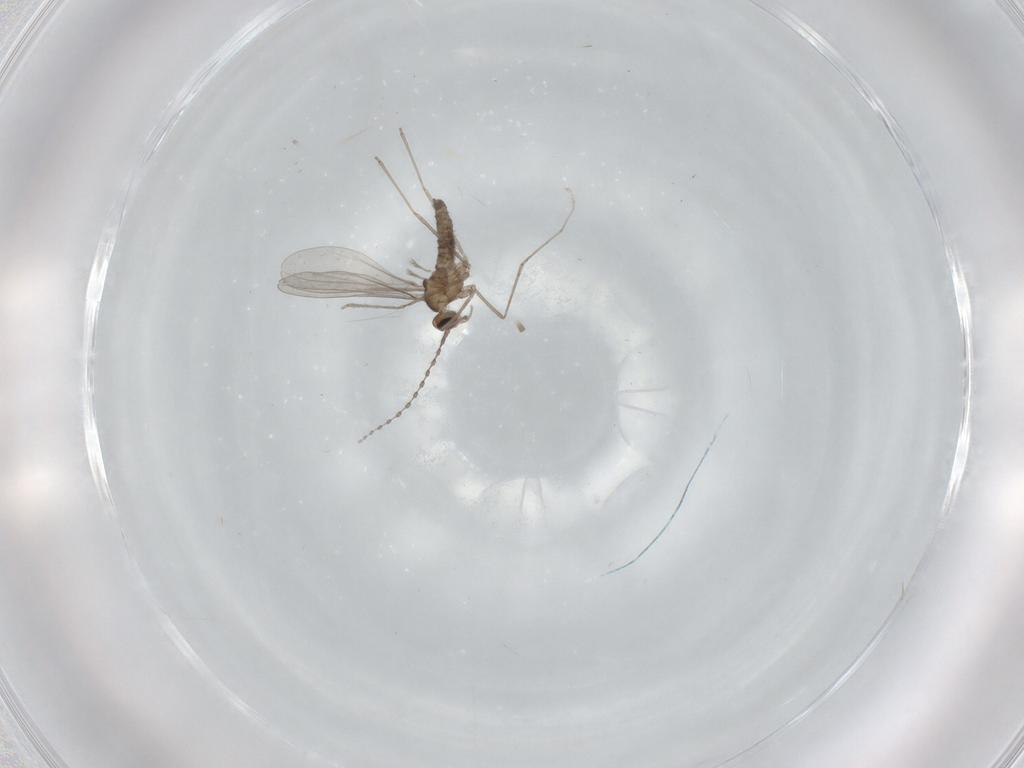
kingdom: Animalia
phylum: Arthropoda
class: Insecta
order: Diptera
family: Cecidomyiidae
